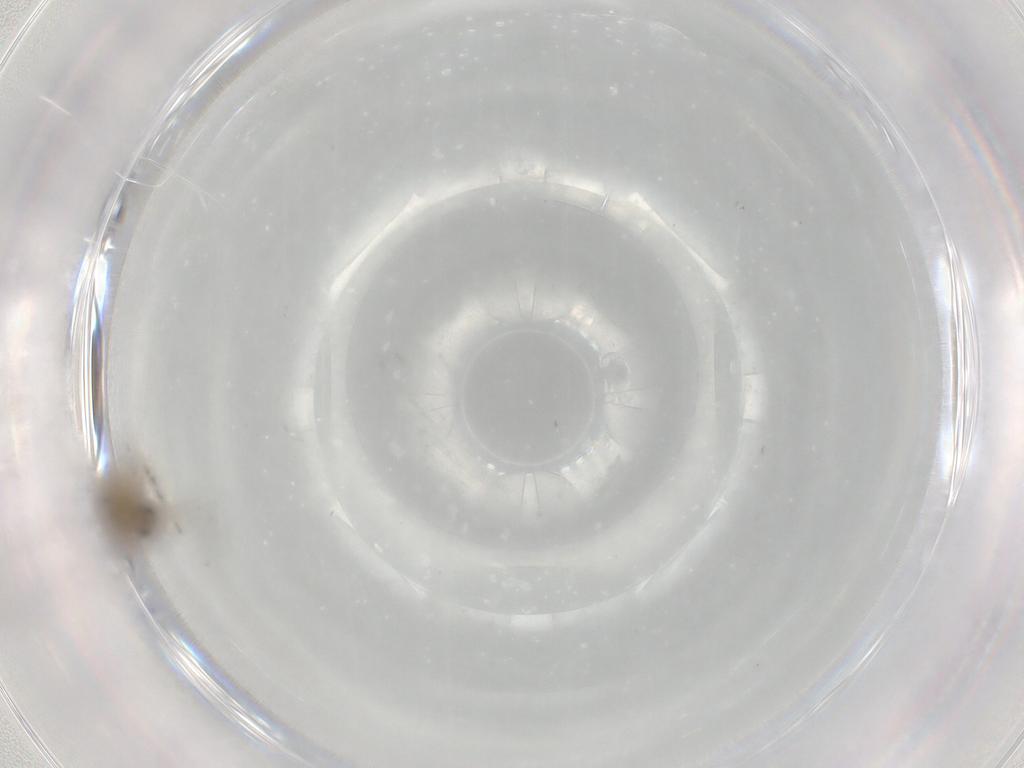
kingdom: Animalia
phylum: Arthropoda
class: Insecta
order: Diptera
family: Chironomidae
